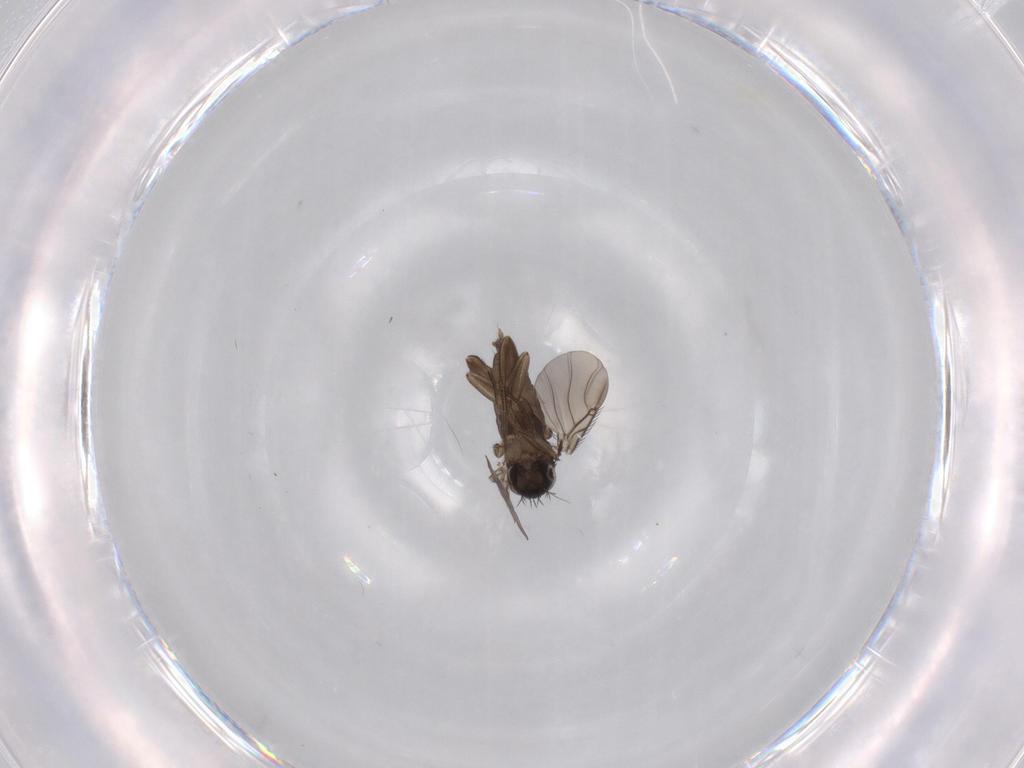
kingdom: Animalia
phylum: Arthropoda
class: Insecta
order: Diptera
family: Phoridae
